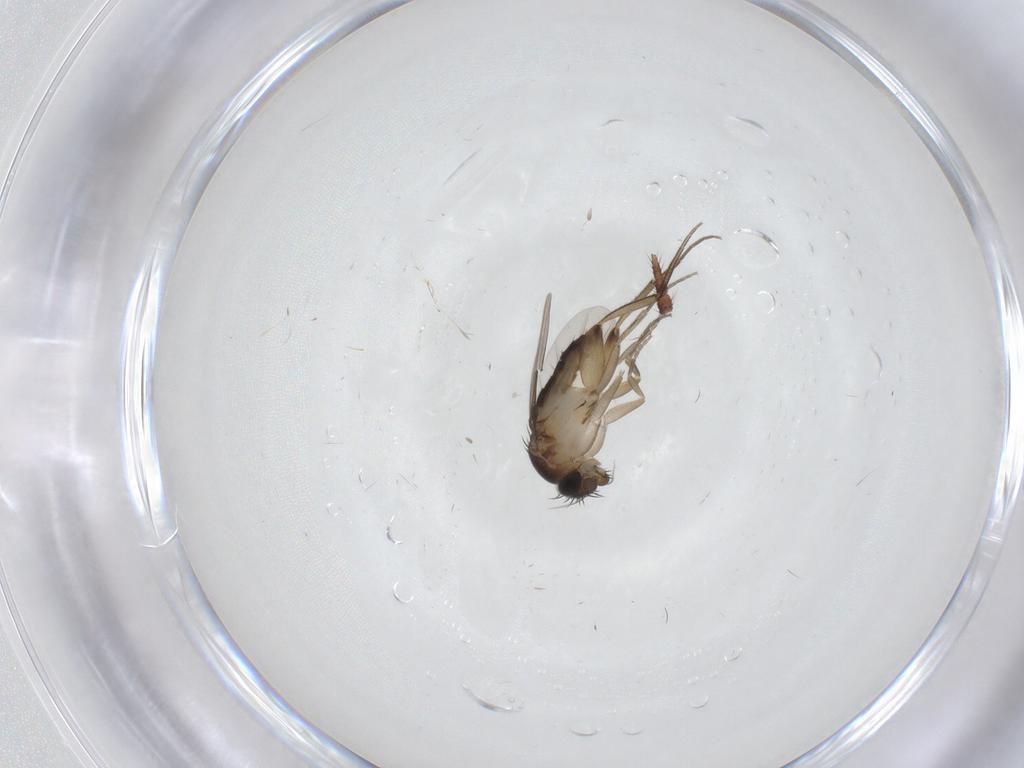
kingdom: Animalia
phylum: Arthropoda
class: Insecta
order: Diptera
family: Phoridae
